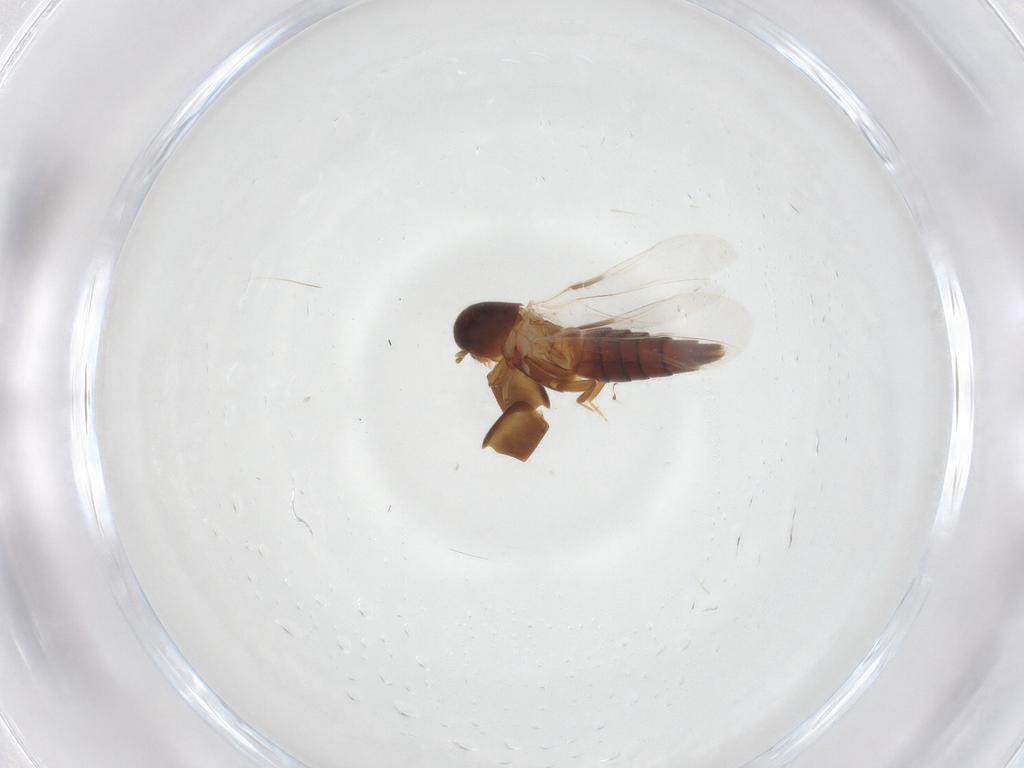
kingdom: Animalia
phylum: Arthropoda
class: Insecta
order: Coleoptera
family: Staphylinidae
